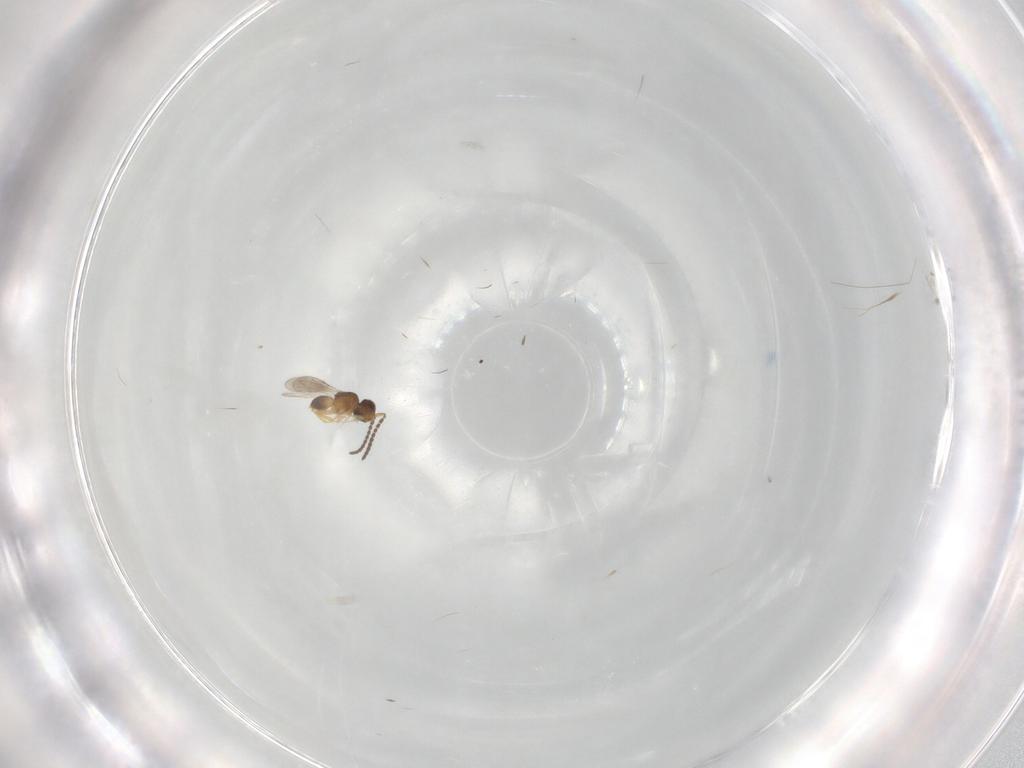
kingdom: Animalia
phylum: Arthropoda
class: Insecta
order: Hymenoptera
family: Ceraphronidae
